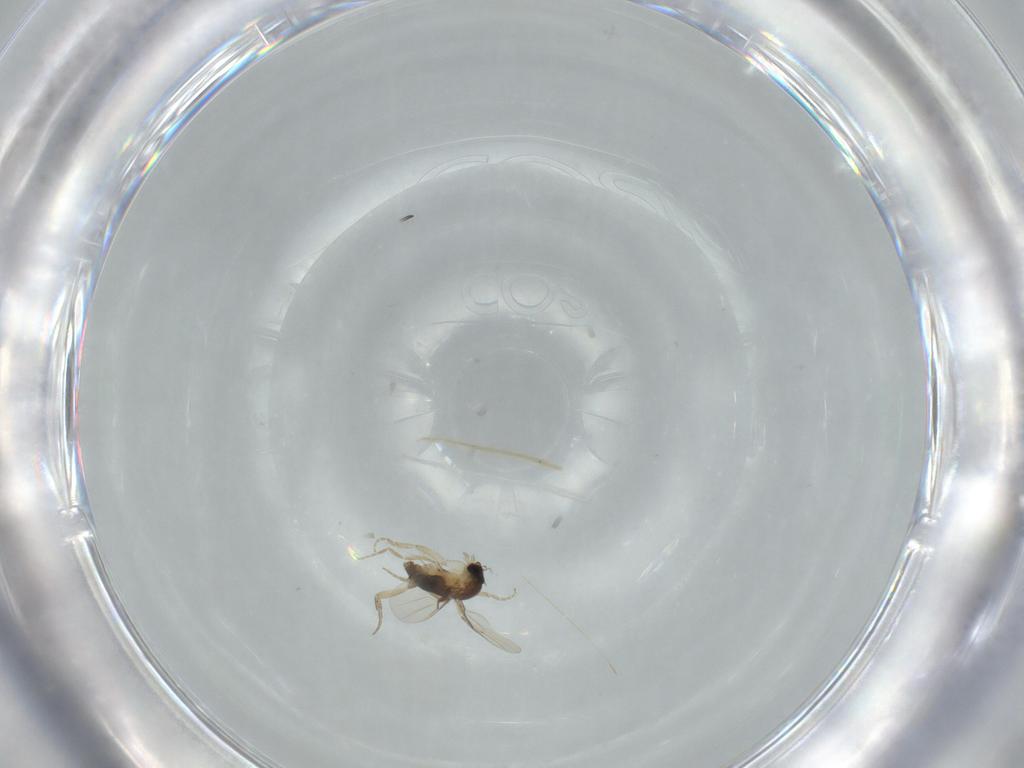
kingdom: Animalia
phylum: Arthropoda
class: Insecta
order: Diptera
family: Phoridae
